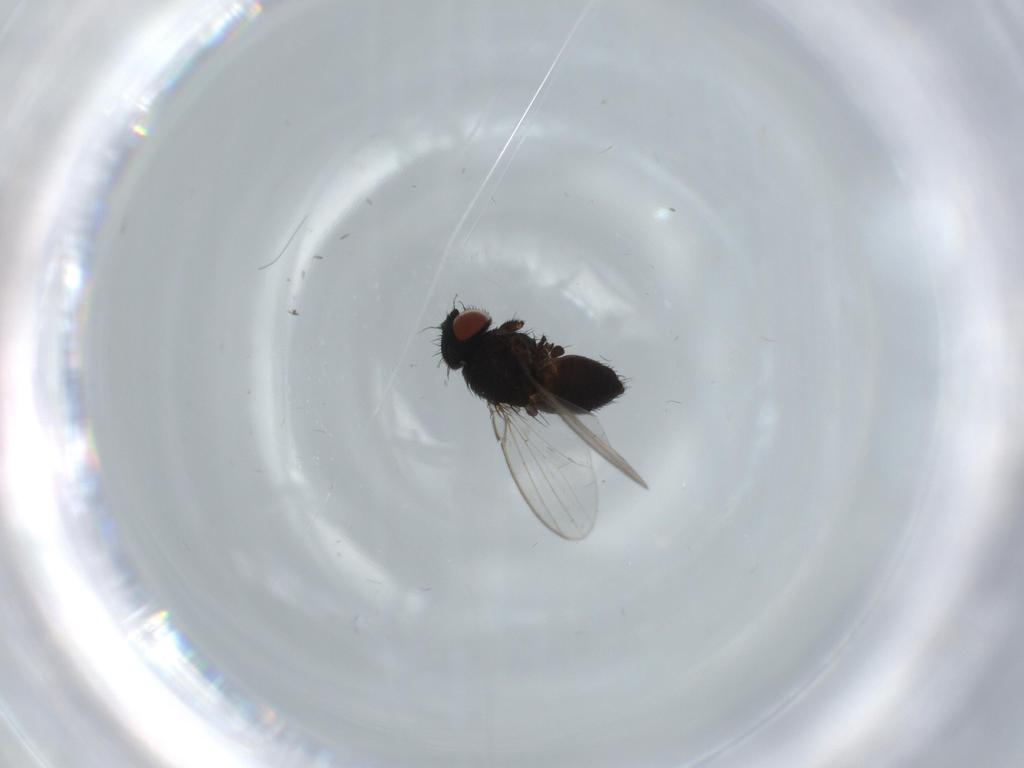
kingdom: Animalia
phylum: Arthropoda
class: Insecta
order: Diptera
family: Milichiidae
